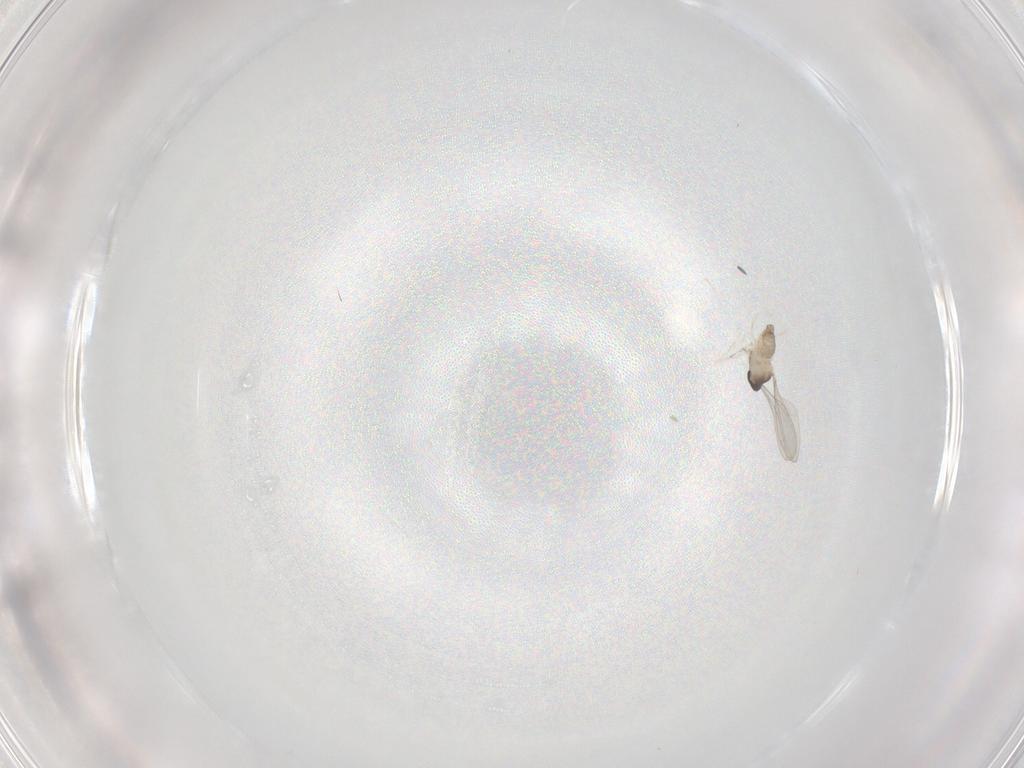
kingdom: Animalia
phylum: Arthropoda
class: Insecta
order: Diptera
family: Cecidomyiidae
